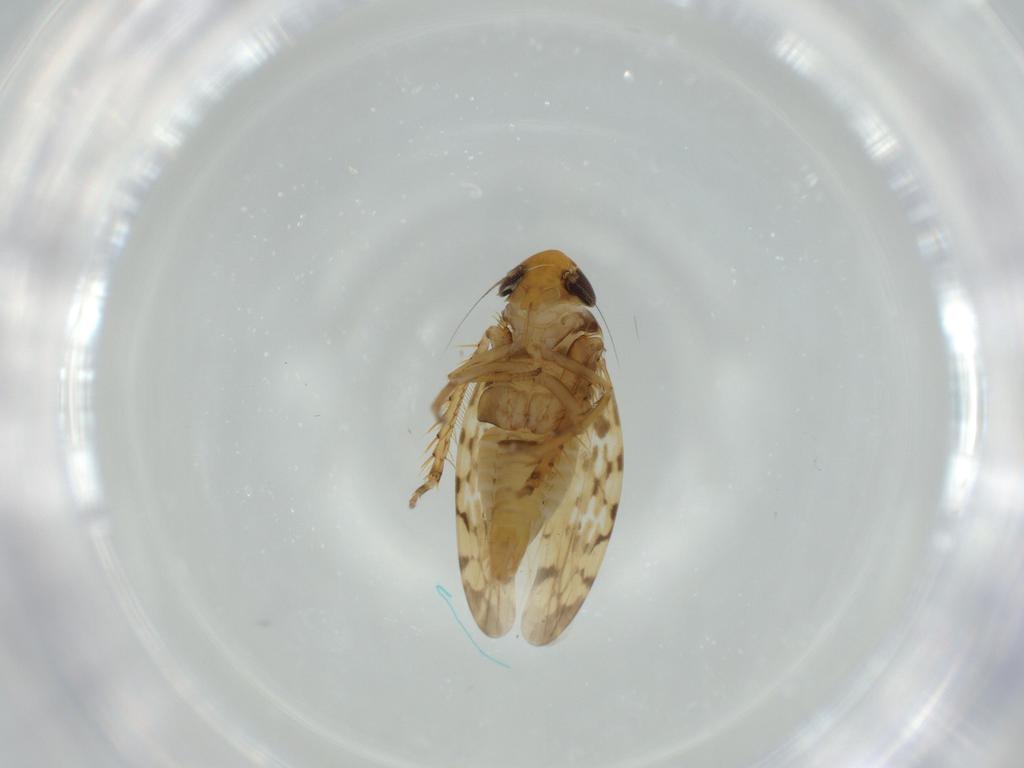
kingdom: Animalia
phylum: Arthropoda
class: Insecta
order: Hemiptera
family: Cicadellidae
